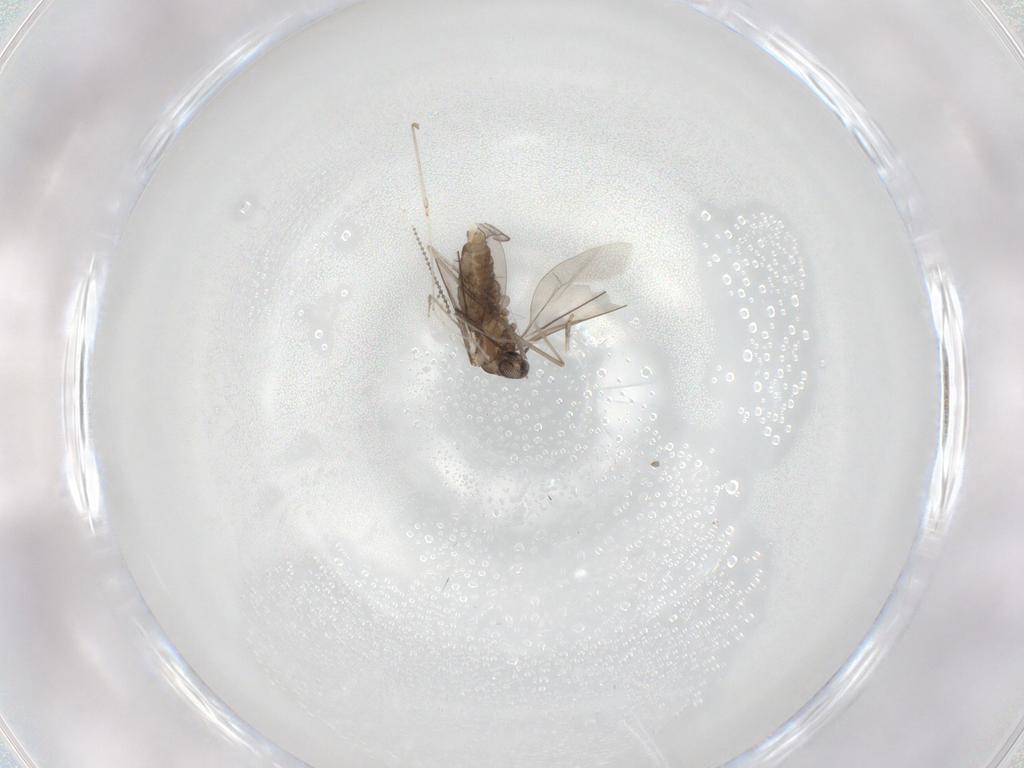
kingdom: Animalia
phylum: Arthropoda
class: Insecta
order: Diptera
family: Cecidomyiidae
